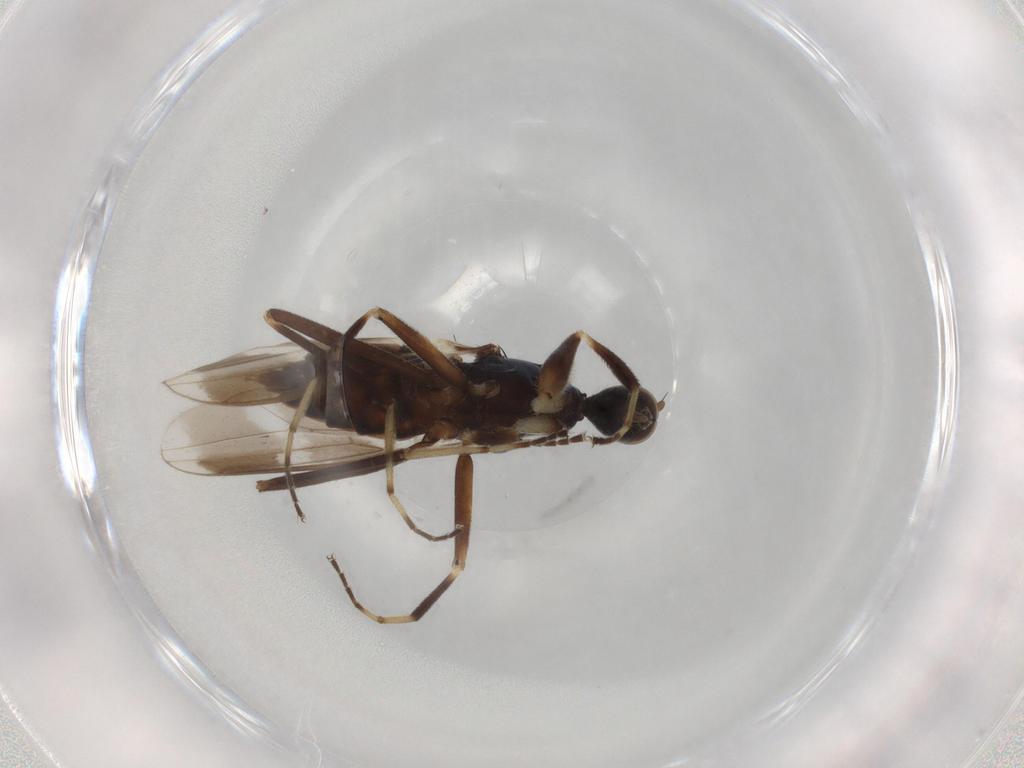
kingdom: Animalia
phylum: Arthropoda
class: Insecta
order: Diptera
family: Hybotidae
